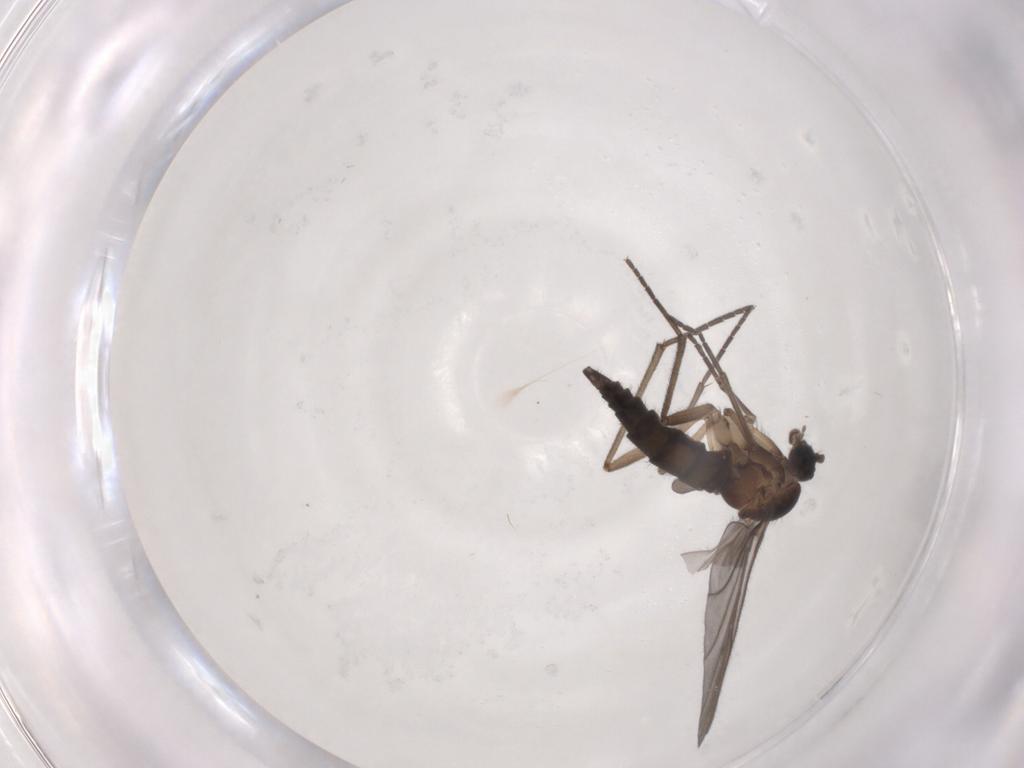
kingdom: Animalia
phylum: Arthropoda
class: Insecta
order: Diptera
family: Sciaridae
